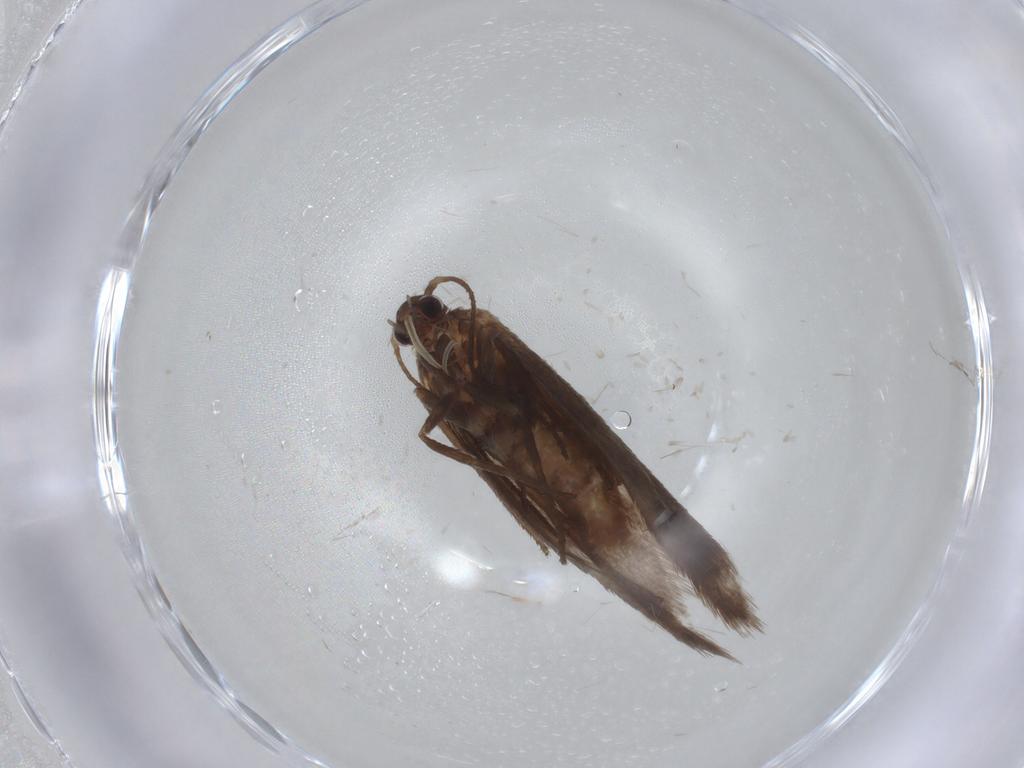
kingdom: Animalia
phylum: Arthropoda
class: Insecta
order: Lepidoptera
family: Limacodidae
